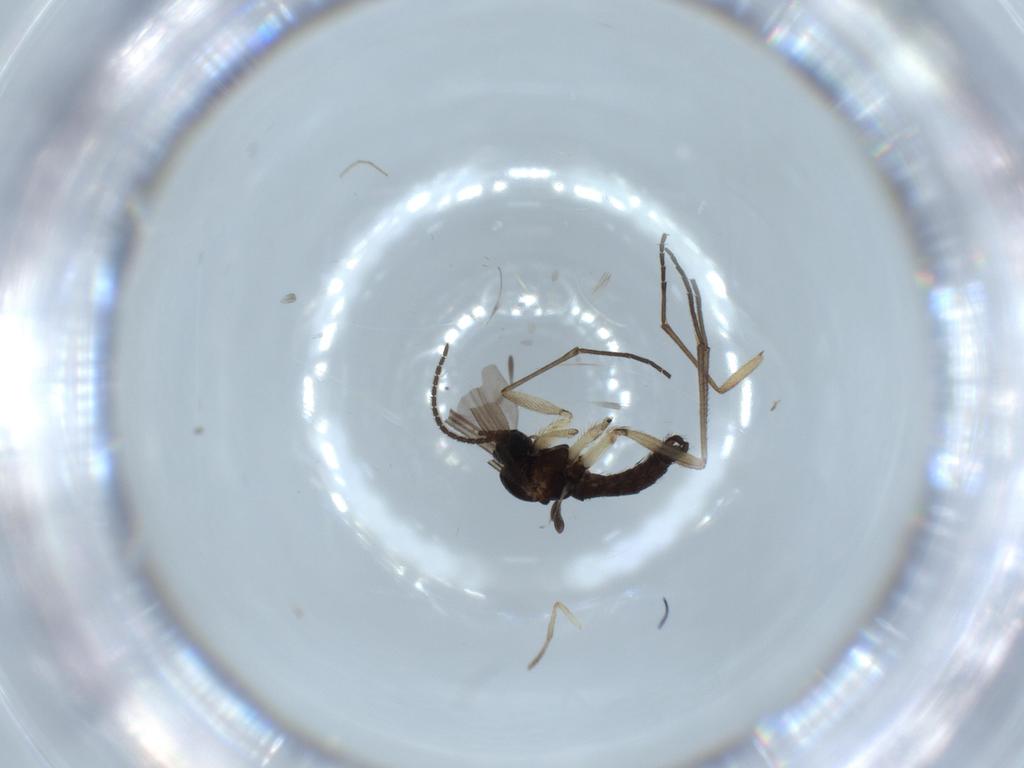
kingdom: Animalia
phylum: Arthropoda
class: Insecta
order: Diptera
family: Sciaridae
